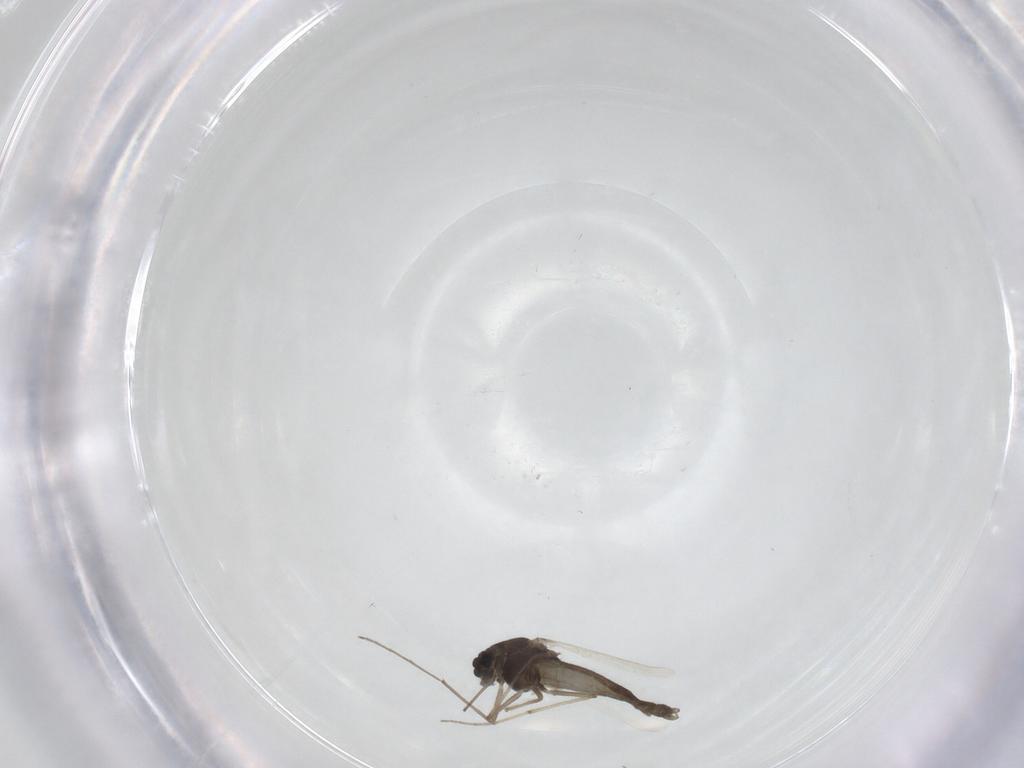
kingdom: Animalia
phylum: Arthropoda
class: Insecta
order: Diptera
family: Chironomidae
